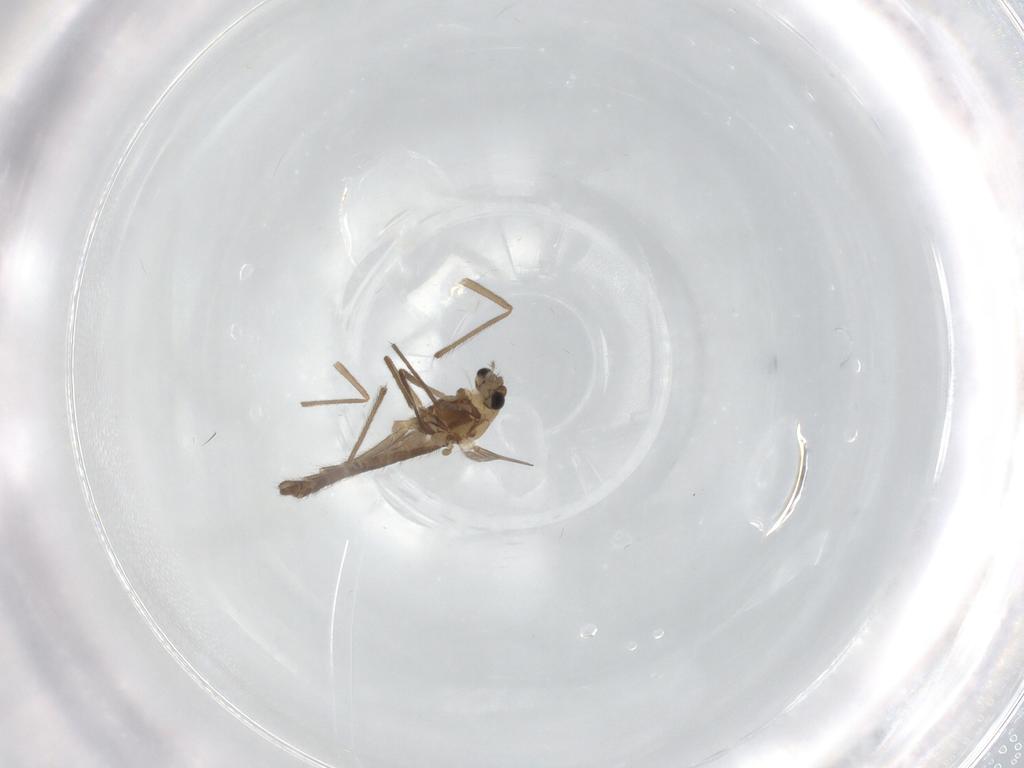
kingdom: Animalia
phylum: Arthropoda
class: Insecta
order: Diptera
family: Chironomidae
